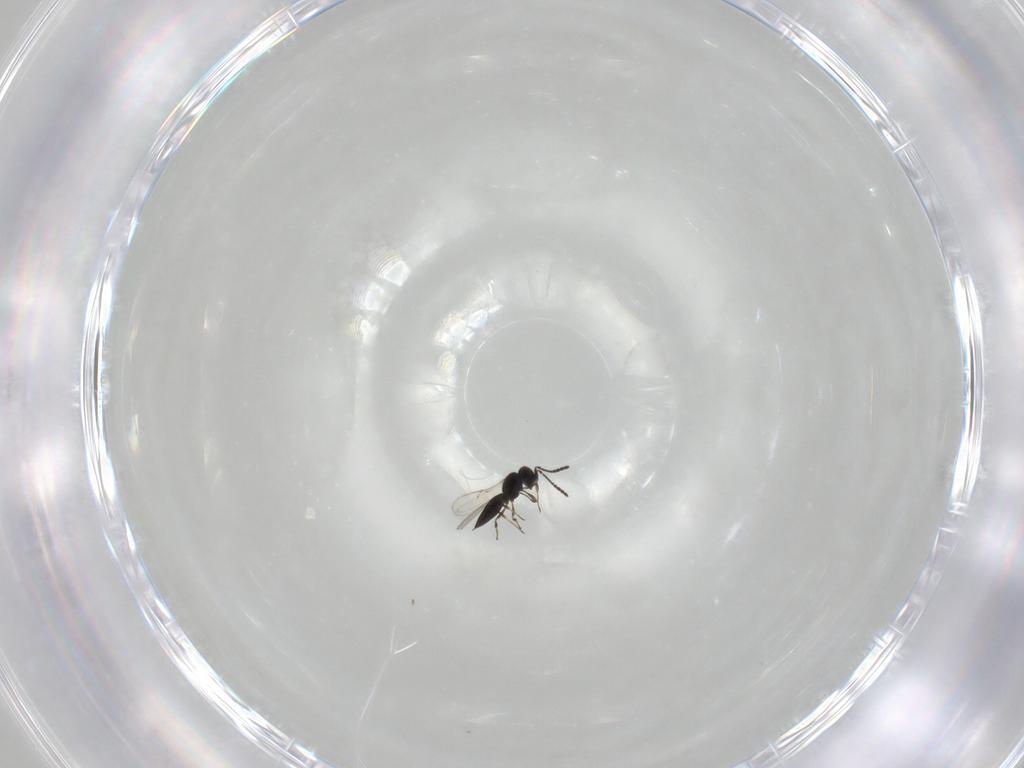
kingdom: Animalia
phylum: Arthropoda
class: Insecta
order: Hymenoptera
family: Scelionidae
